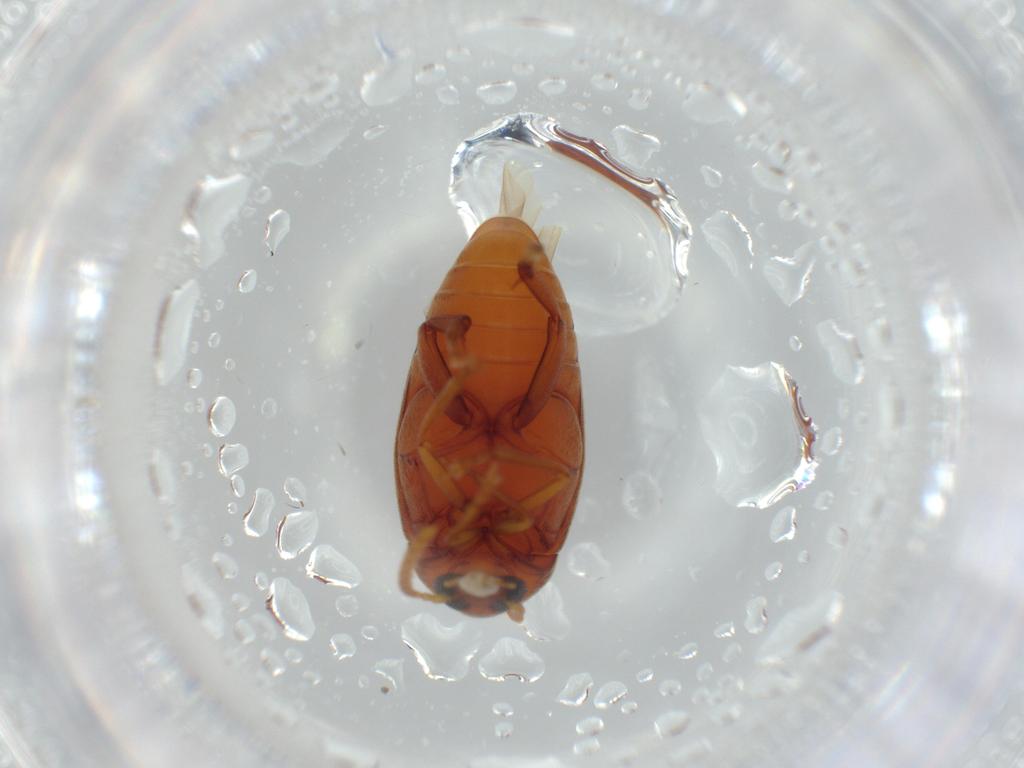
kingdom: Animalia
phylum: Arthropoda
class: Insecta
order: Coleoptera
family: Chrysomelidae
